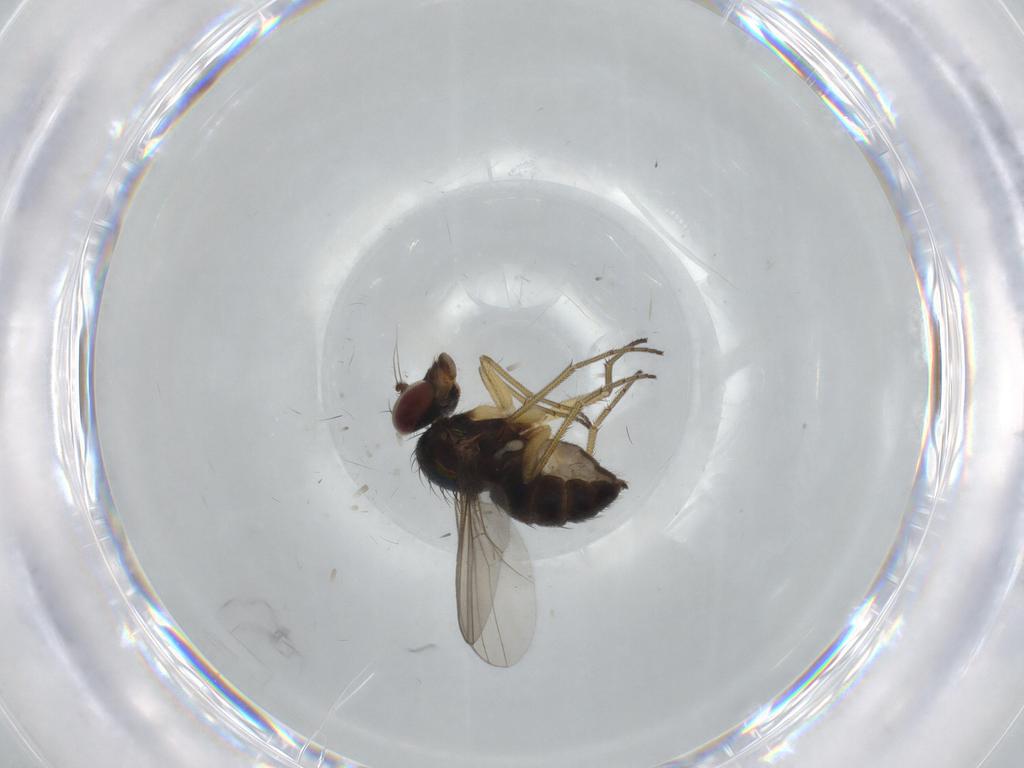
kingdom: Animalia
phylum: Arthropoda
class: Insecta
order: Diptera
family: Dolichopodidae
